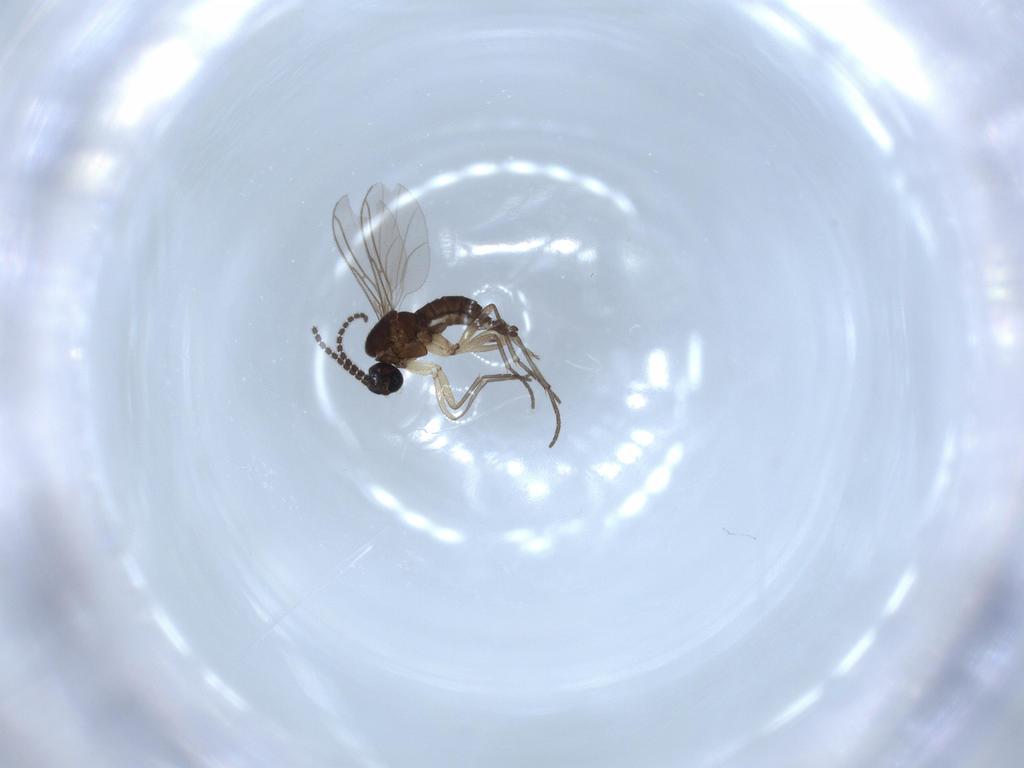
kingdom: Animalia
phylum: Arthropoda
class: Insecta
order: Diptera
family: Sciaridae
